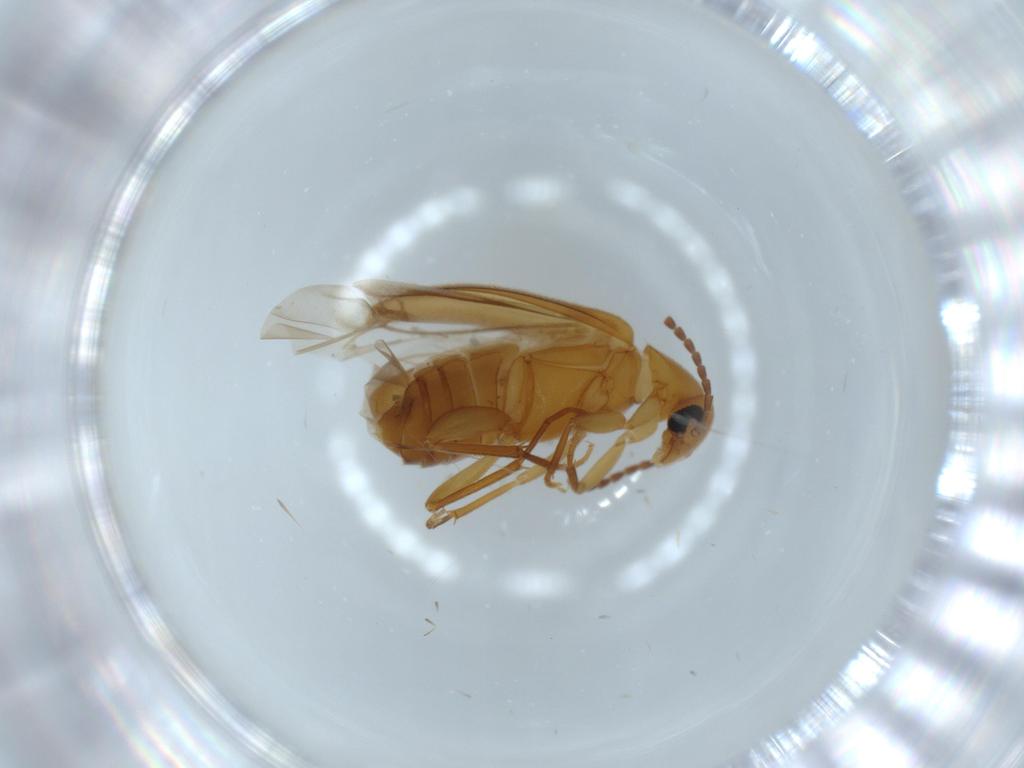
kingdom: Animalia
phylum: Arthropoda
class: Insecta
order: Coleoptera
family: Scraptiidae
